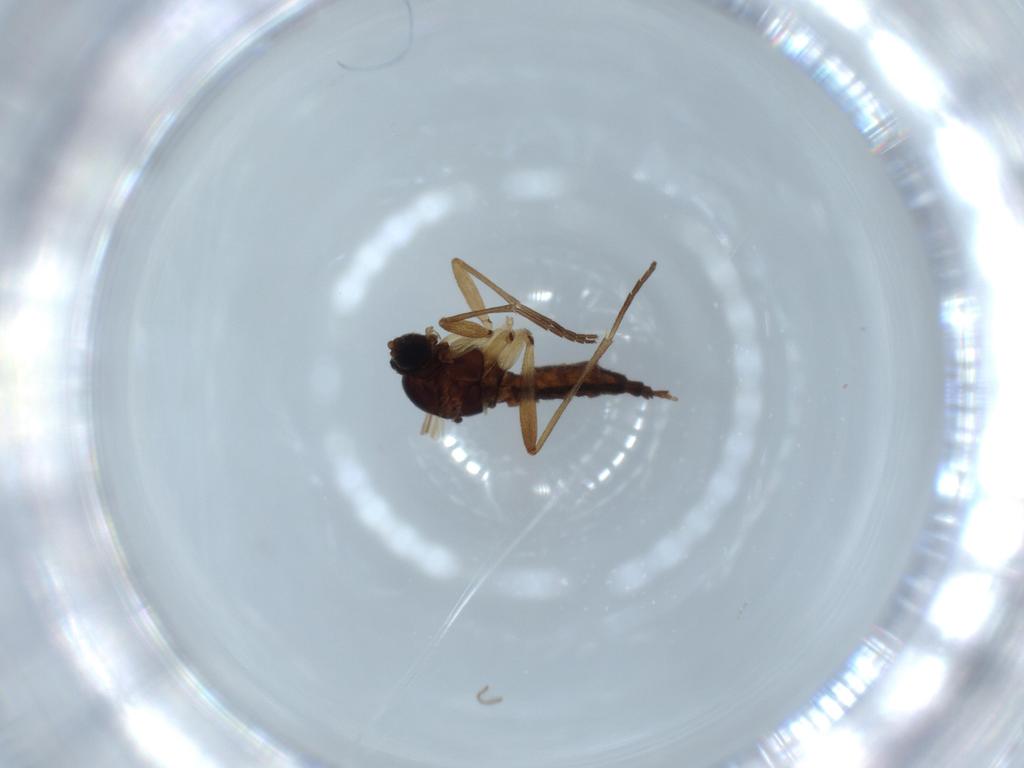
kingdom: Animalia
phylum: Arthropoda
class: Insecta
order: Diptera
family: Sciaridae
